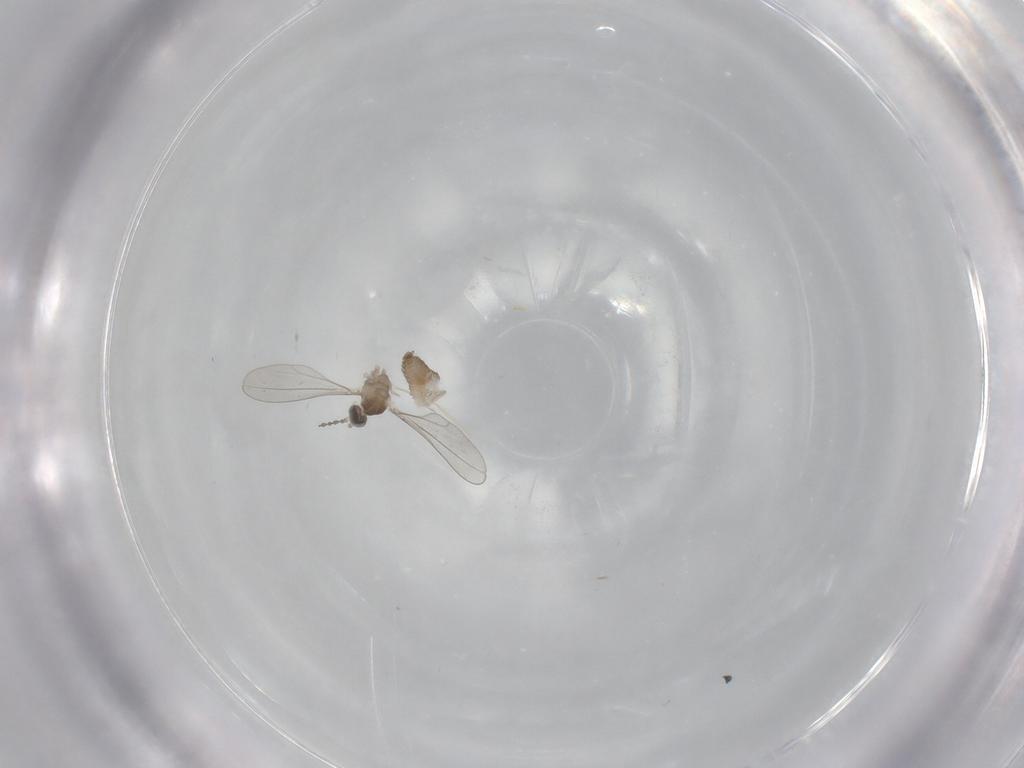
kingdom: Animalia
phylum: Arthropoda
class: Insecta
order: Diptera
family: Cecidomyiidae
